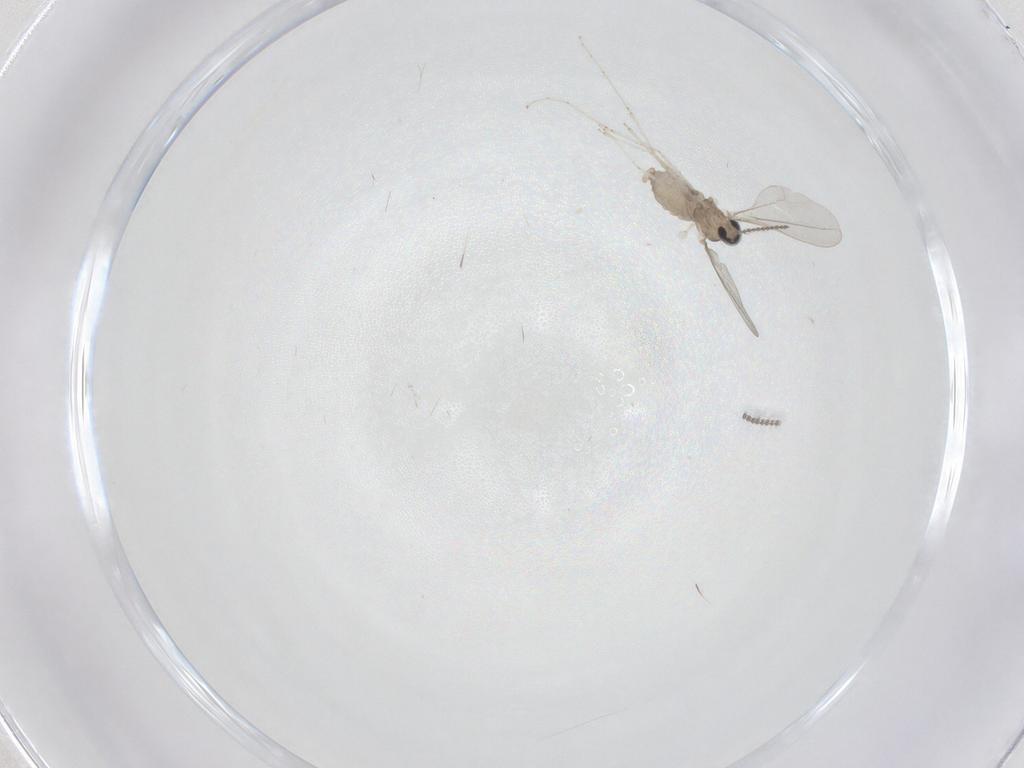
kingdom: Animalia
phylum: Arthropoda
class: Insecta
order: Diptera
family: Cecidomyiidae
